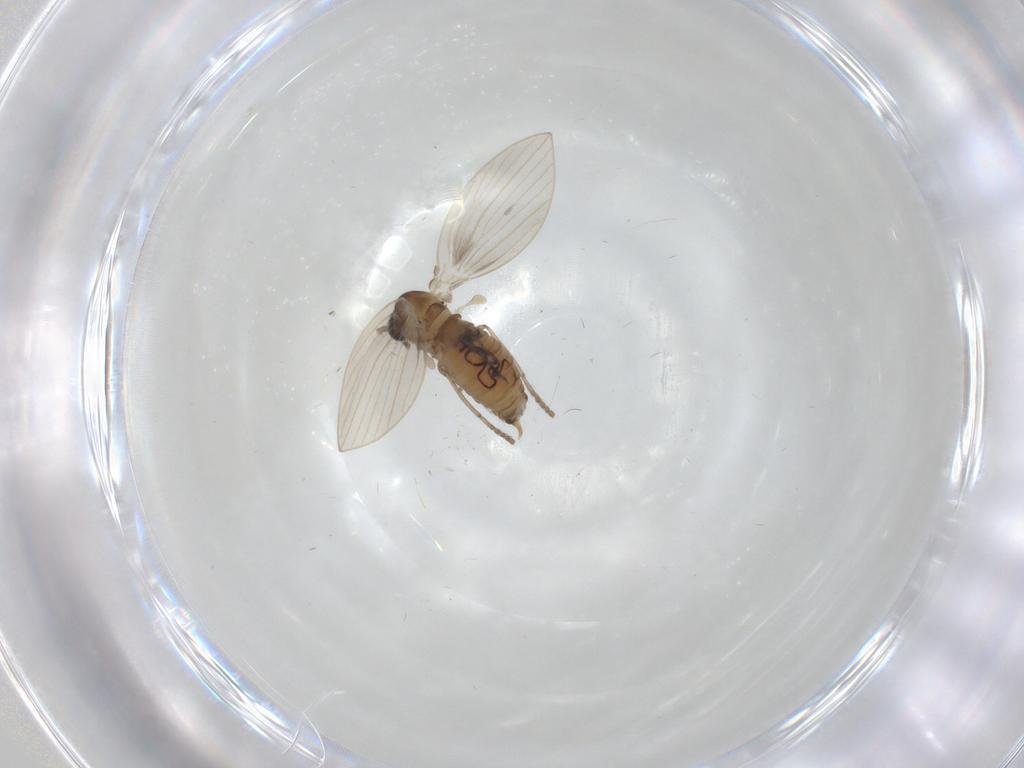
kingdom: Animalia
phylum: Arthropoda
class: Insecta
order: Diptera
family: Psychodidae
